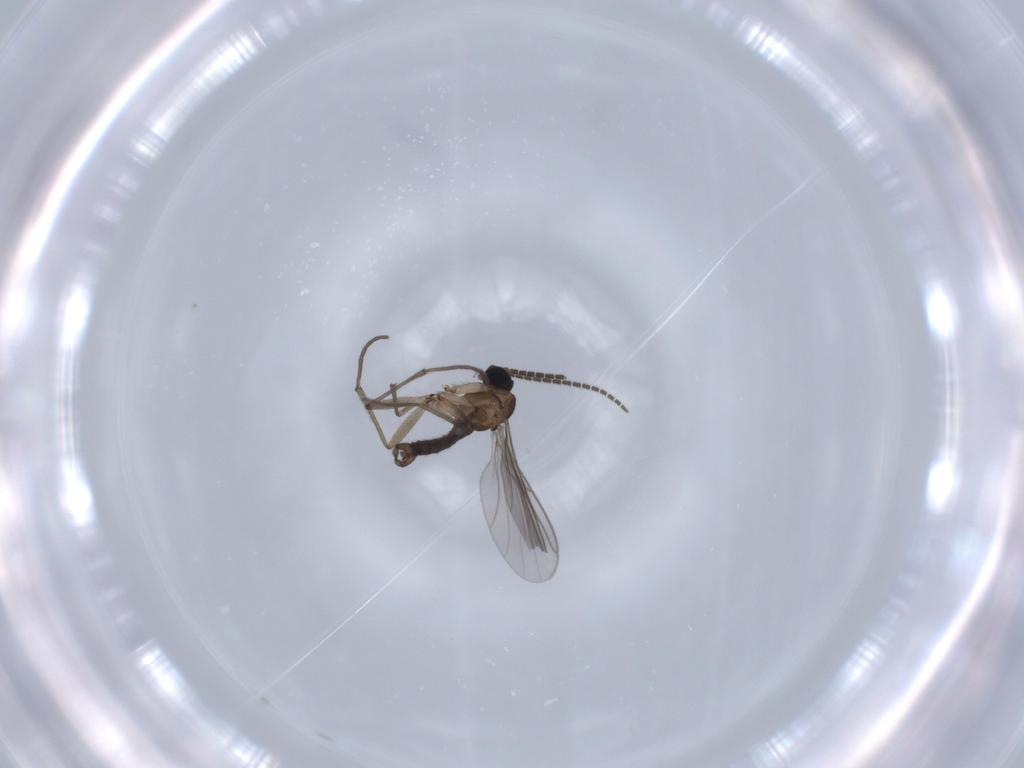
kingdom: Animalia
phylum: Arthropoda
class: Insecta
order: Diptera
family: Sciaridae
